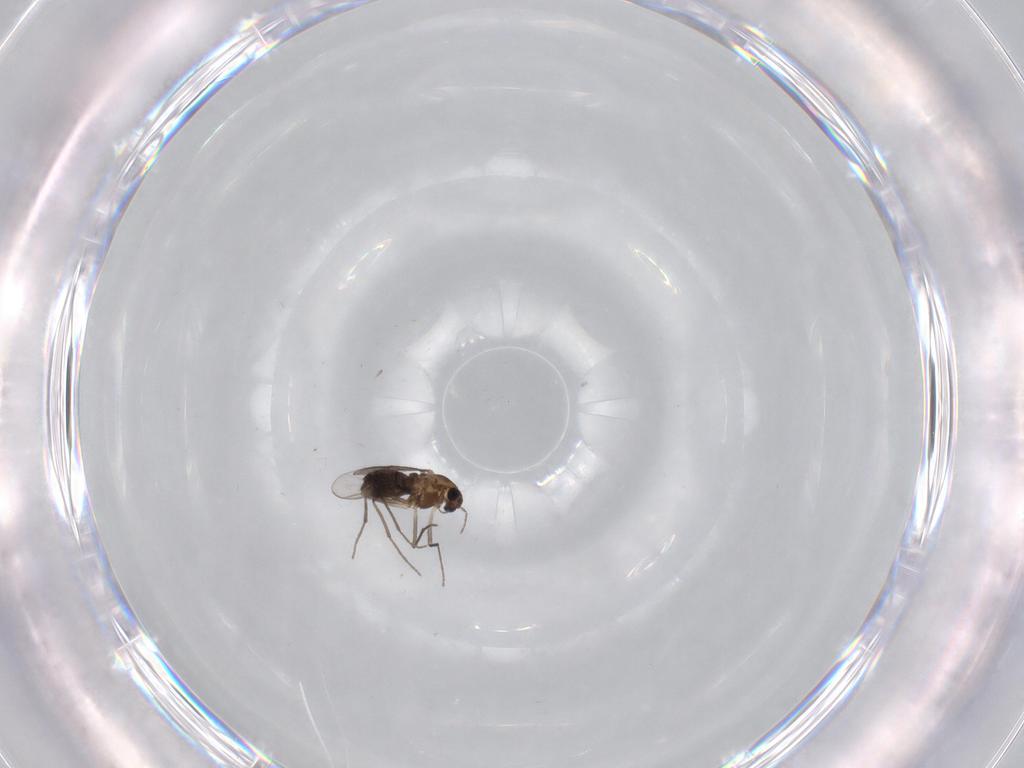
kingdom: Animalia
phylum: Arthropoda
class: Insecta
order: Diptera
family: Chironomidae
